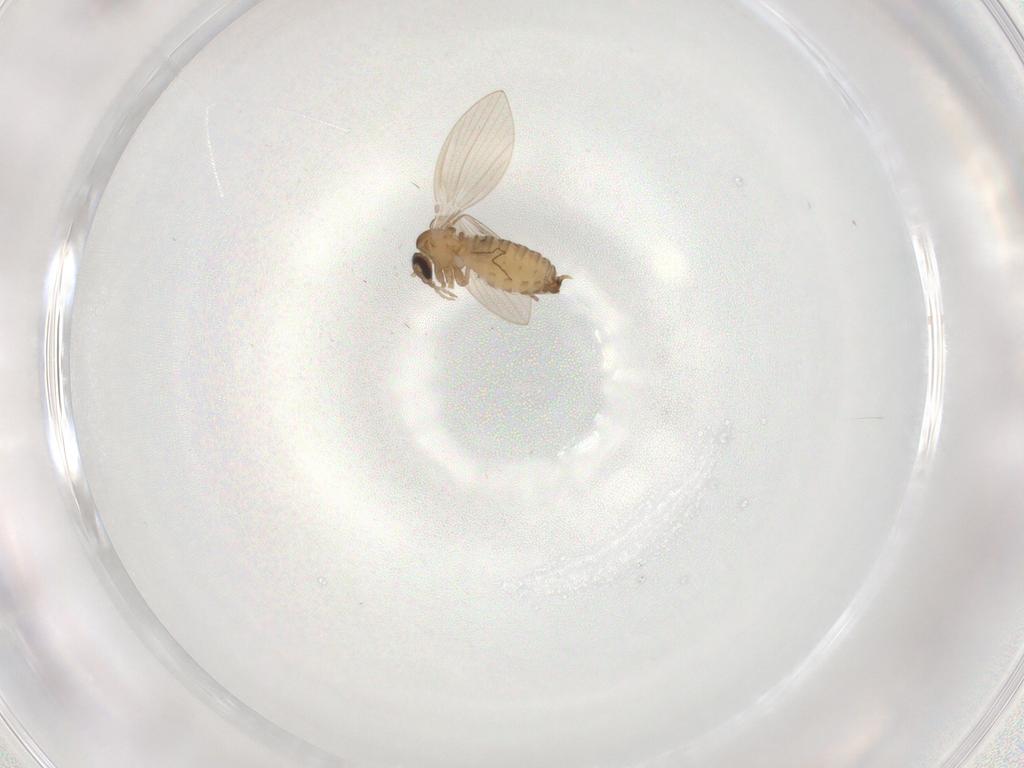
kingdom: Animalia
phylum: Arthropoda
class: Insecta
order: Diptera
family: Psychodidae
